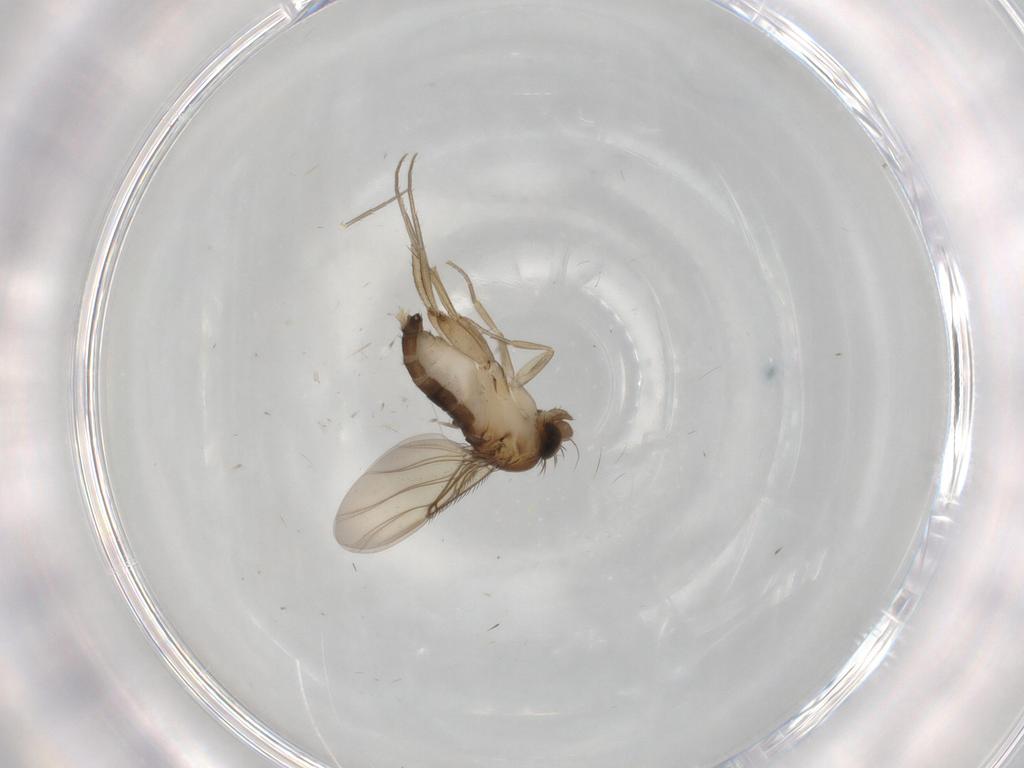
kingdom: Animalia
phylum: Arthropoda
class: Insecta
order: Diptera
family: Phoridae
